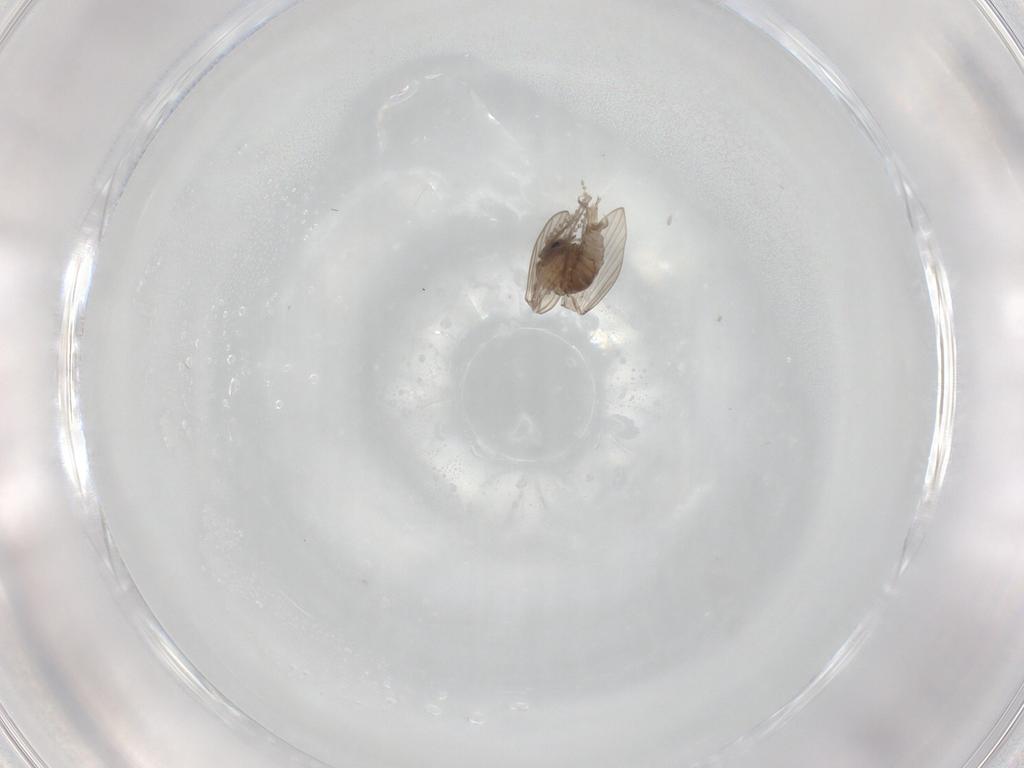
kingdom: Animalia
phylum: Arthropoda
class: Insecta
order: Diptera
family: Psychodidae
